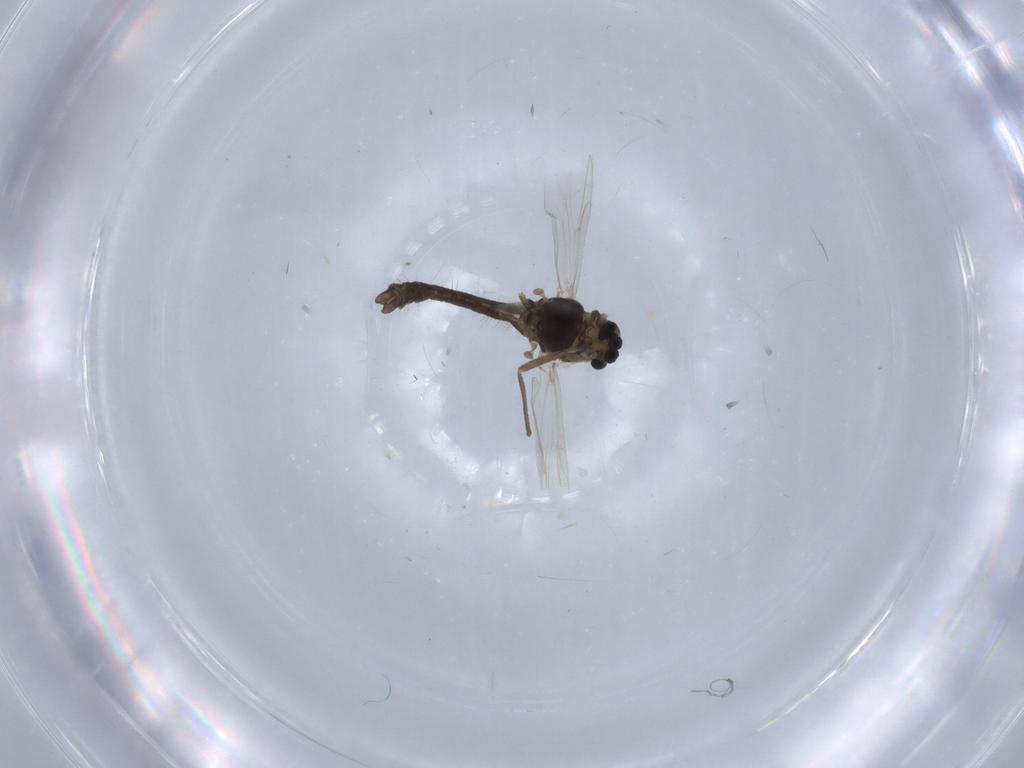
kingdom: Animalia
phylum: Arthropoda
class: Insecta
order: Diptera
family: Chironomidae
